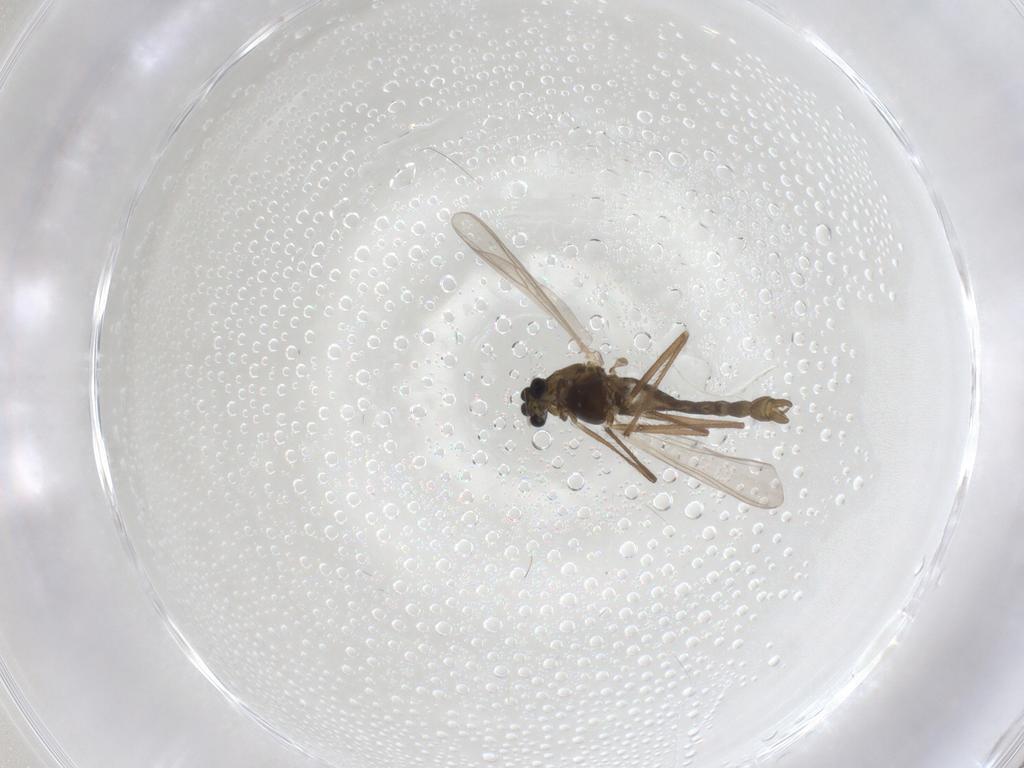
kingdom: Animalia
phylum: Arthropoda
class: Insecta
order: Diptera
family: Chironomidae
